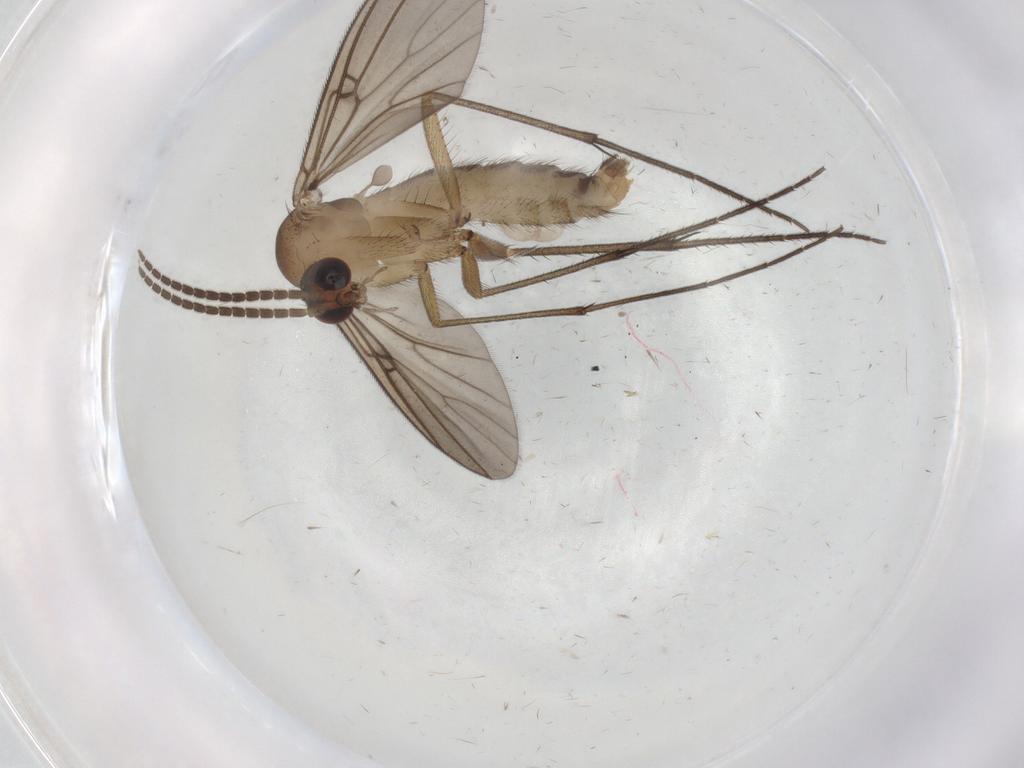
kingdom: Animalia
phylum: Arthropoda
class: Insecta
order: Diptera
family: Mycetophilidae
